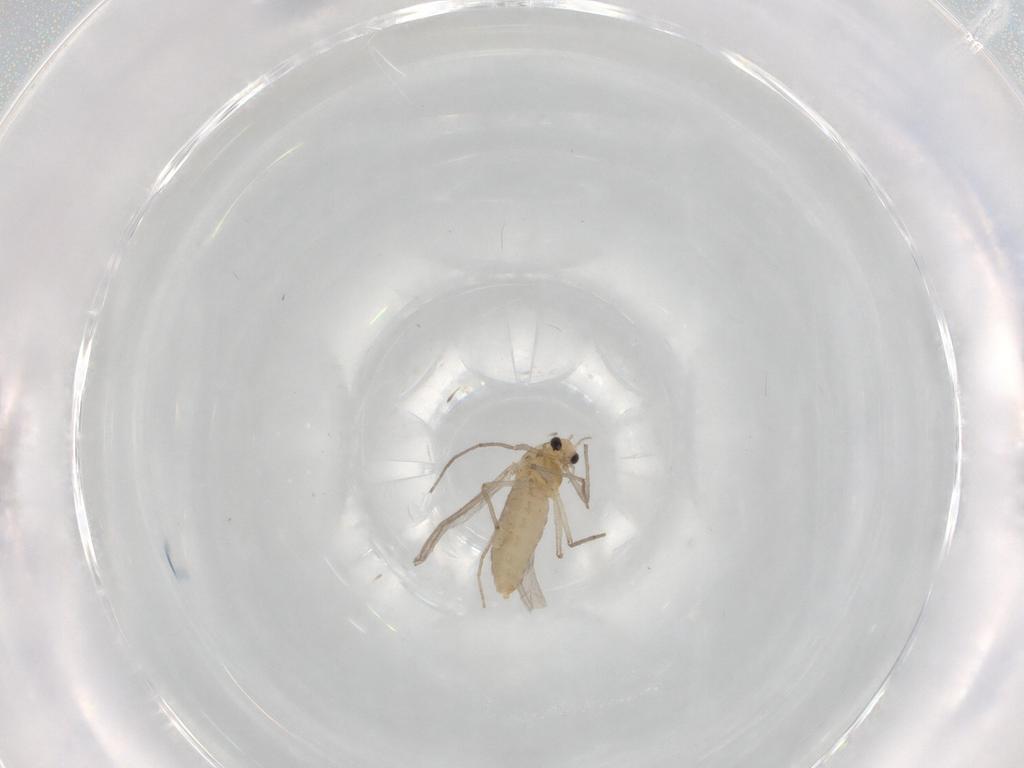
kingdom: Animalia
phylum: Arthropoda
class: Insecta
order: Diptera
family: Chironomidae
